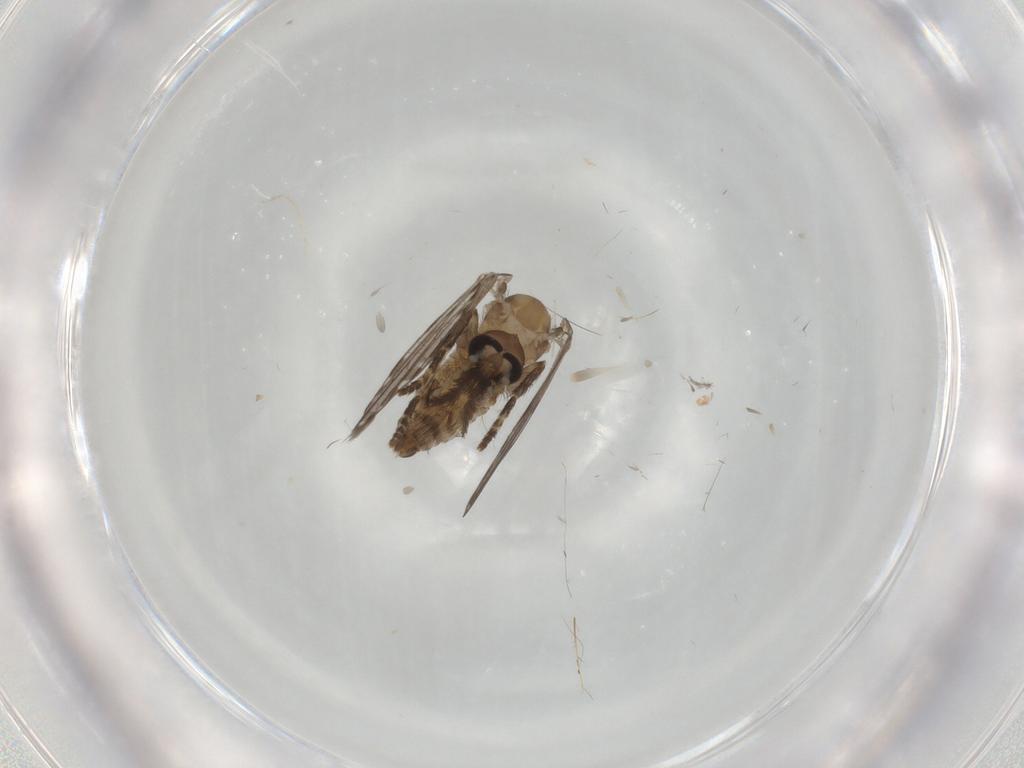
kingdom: Animalia
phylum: Arthropoda
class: Insecta
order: Diptera
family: Psychodidae
